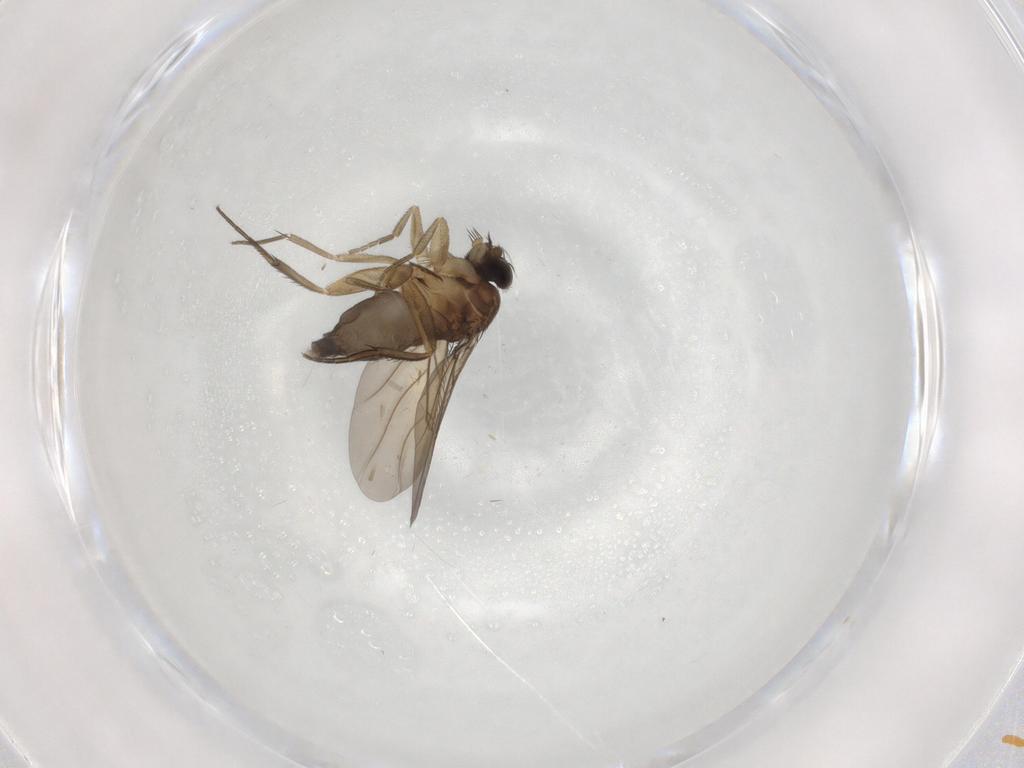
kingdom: Animalia
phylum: Arthropoda
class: Insecta
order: Diptera
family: Phoridae
